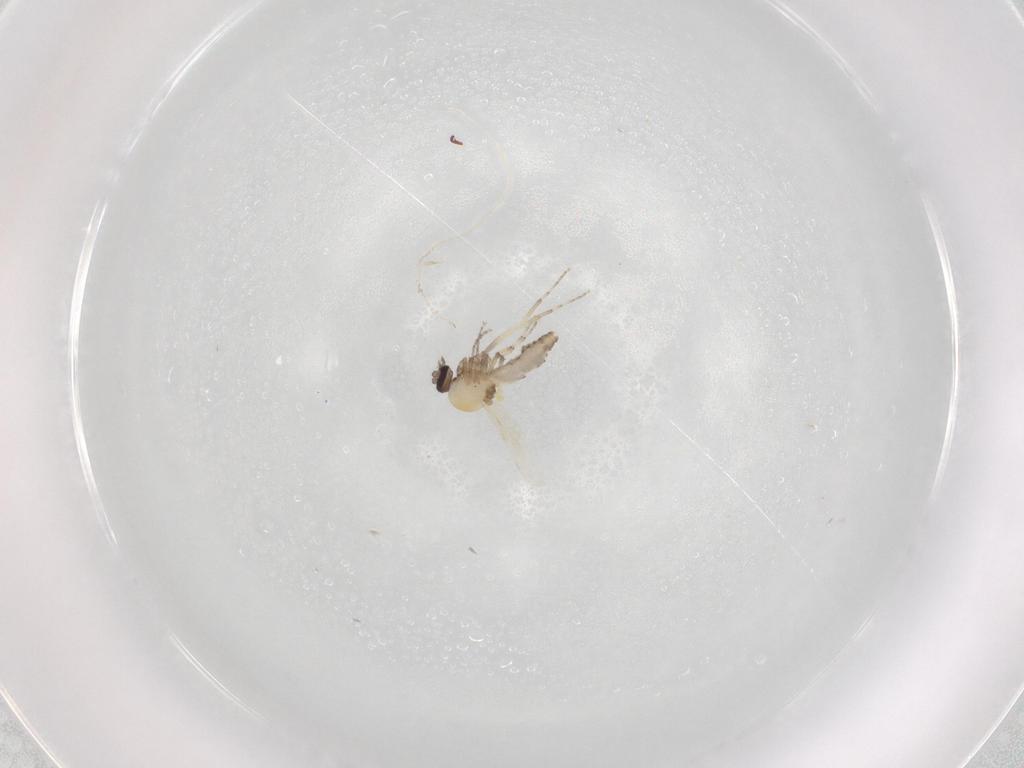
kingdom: Animalia
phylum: Arthropoda
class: Insecta
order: Diptera
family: Ceratopogonidae
